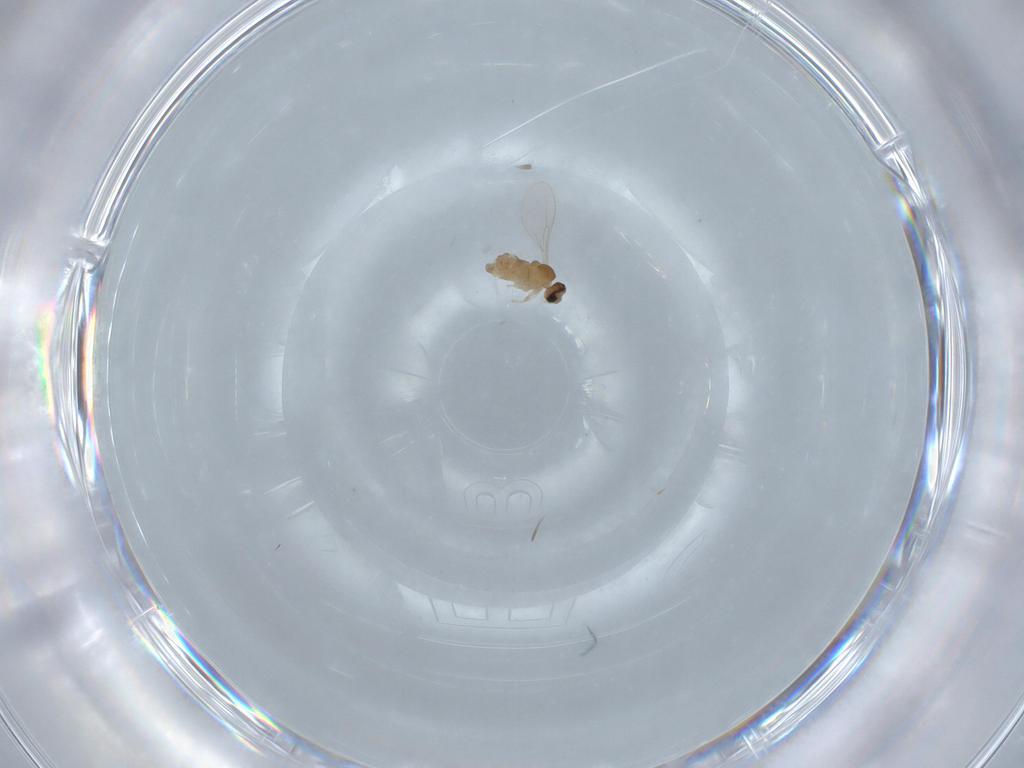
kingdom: Animalia
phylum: Arthropoda
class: Insecta
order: Diptera
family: Cecidomyiidae
